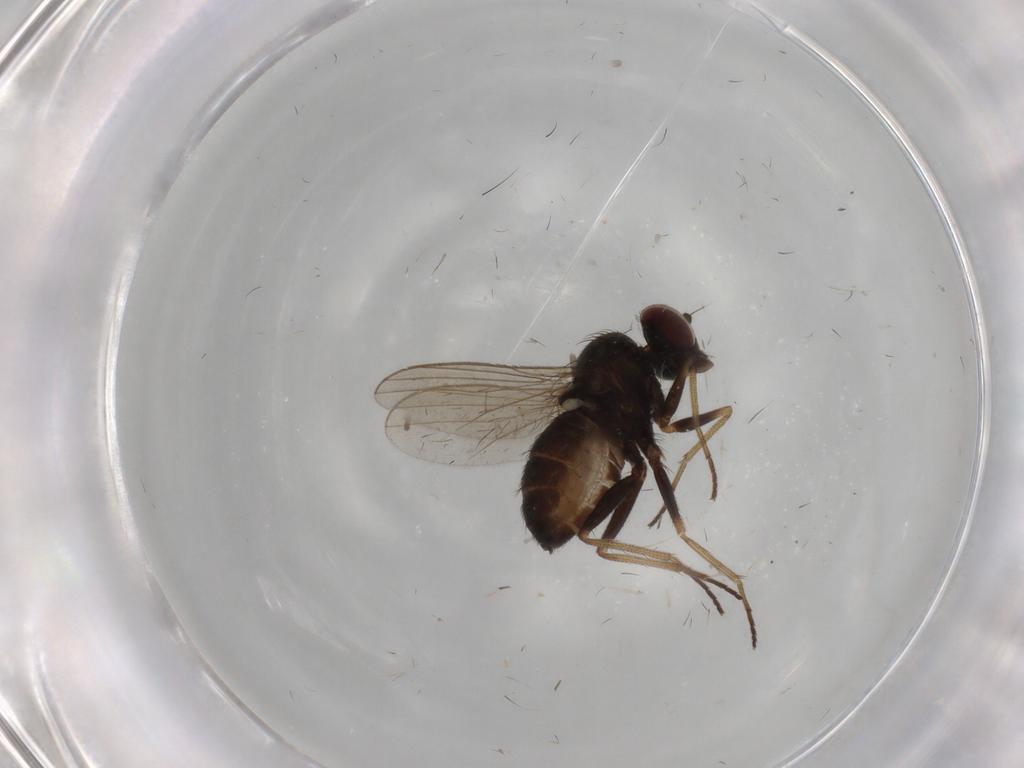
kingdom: Animalia
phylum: Arthropoda
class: Insecta
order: Diptera
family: Dolichopodidae
